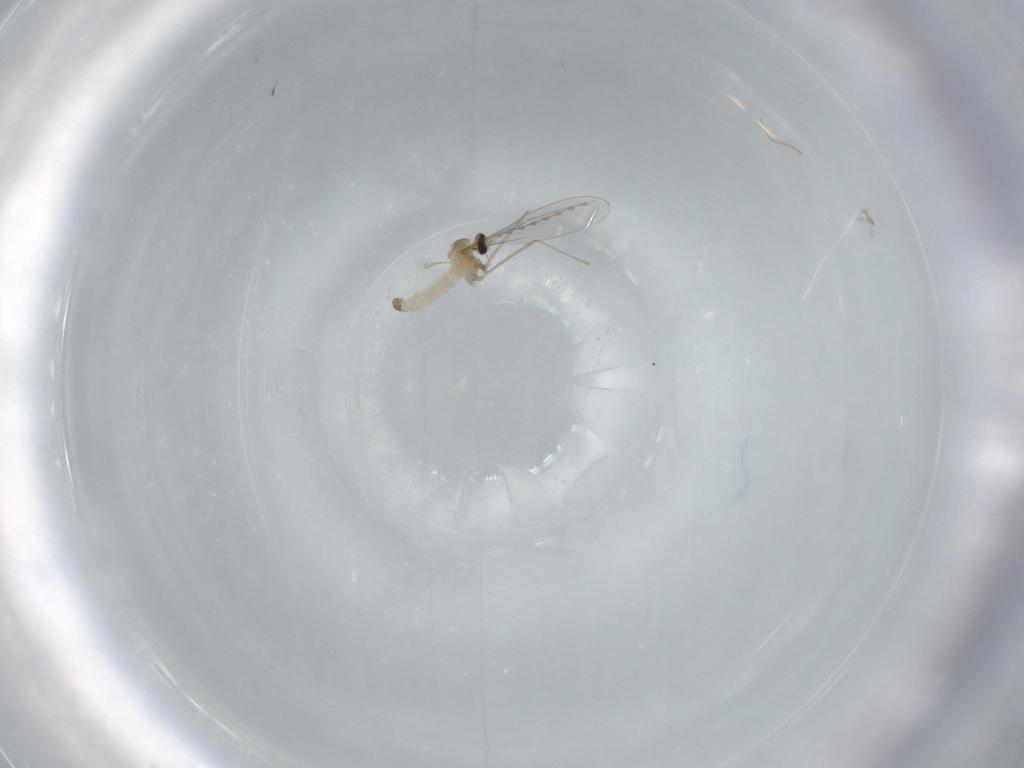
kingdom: Animalia
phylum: Arthropoda
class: Insecta
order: Diptera
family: Cecidomyiidae
